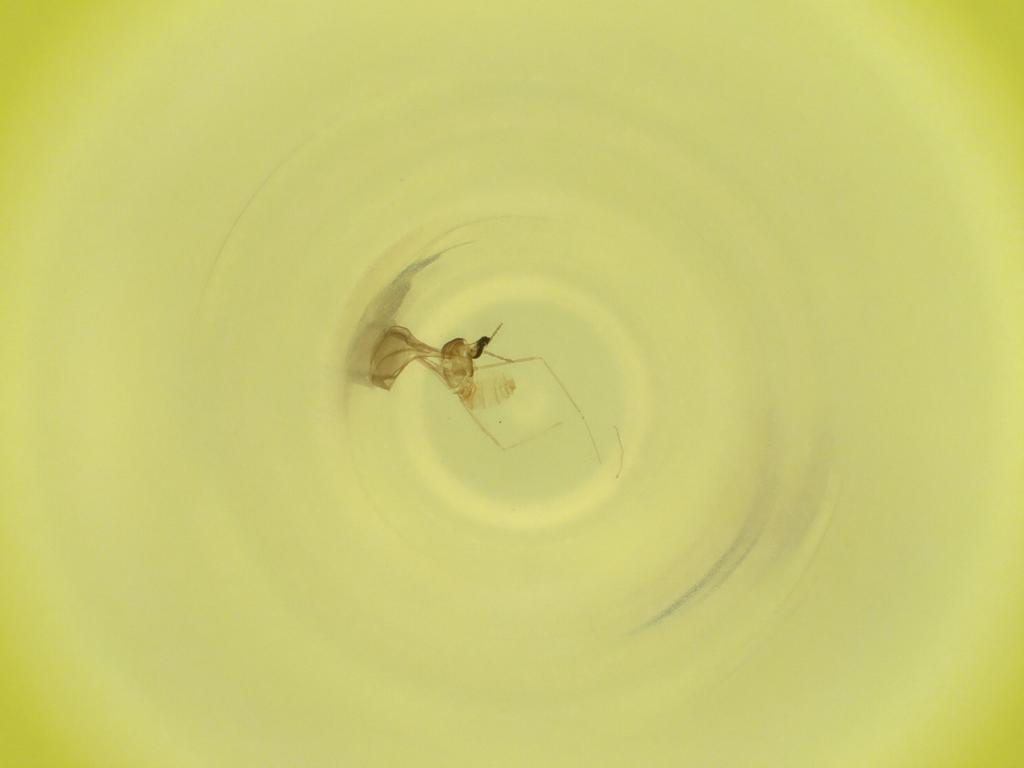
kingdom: Animalia
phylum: Arthropoda
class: Insecta
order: Diptera
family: Cecidomyiidae
